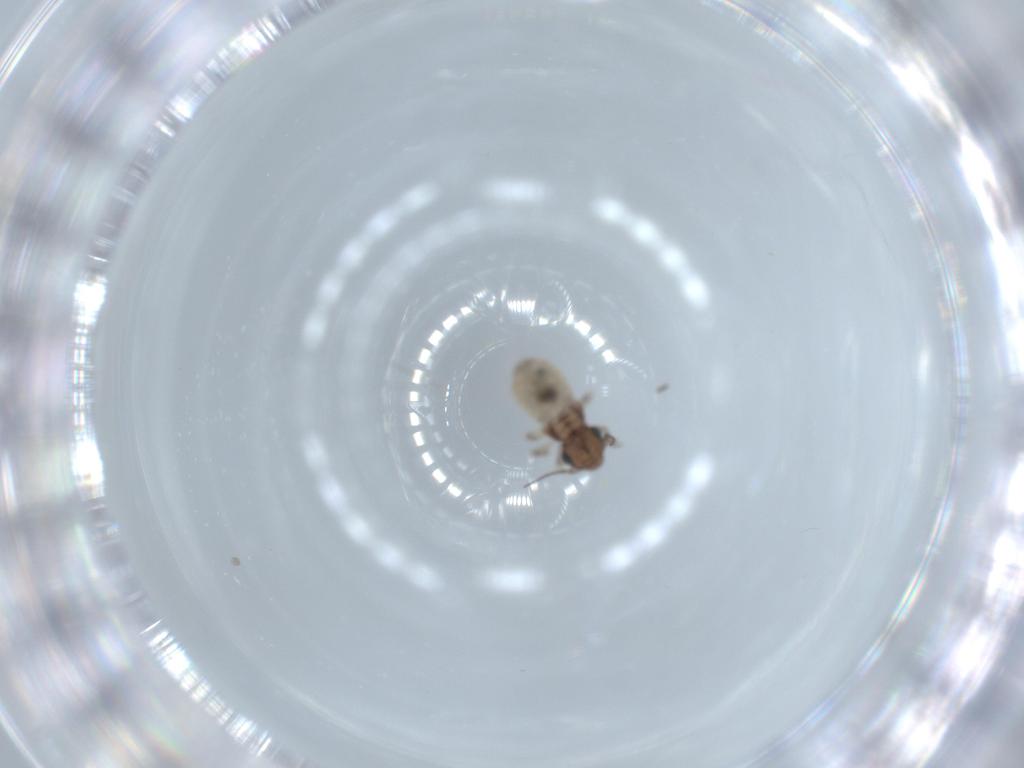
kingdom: Animalia
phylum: Arthropoda
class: Insecta
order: Psocodea
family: Lepidopsocidae
